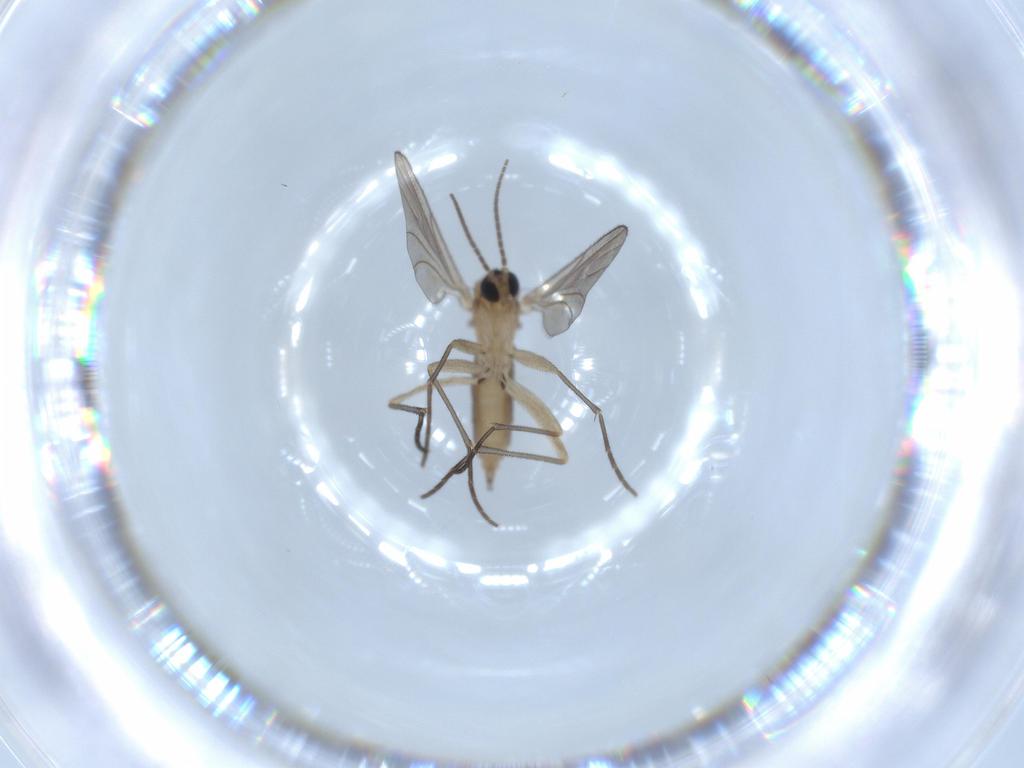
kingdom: Animalia
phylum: Arthropoda
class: Insecta
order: Diptera
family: Sciaridae
